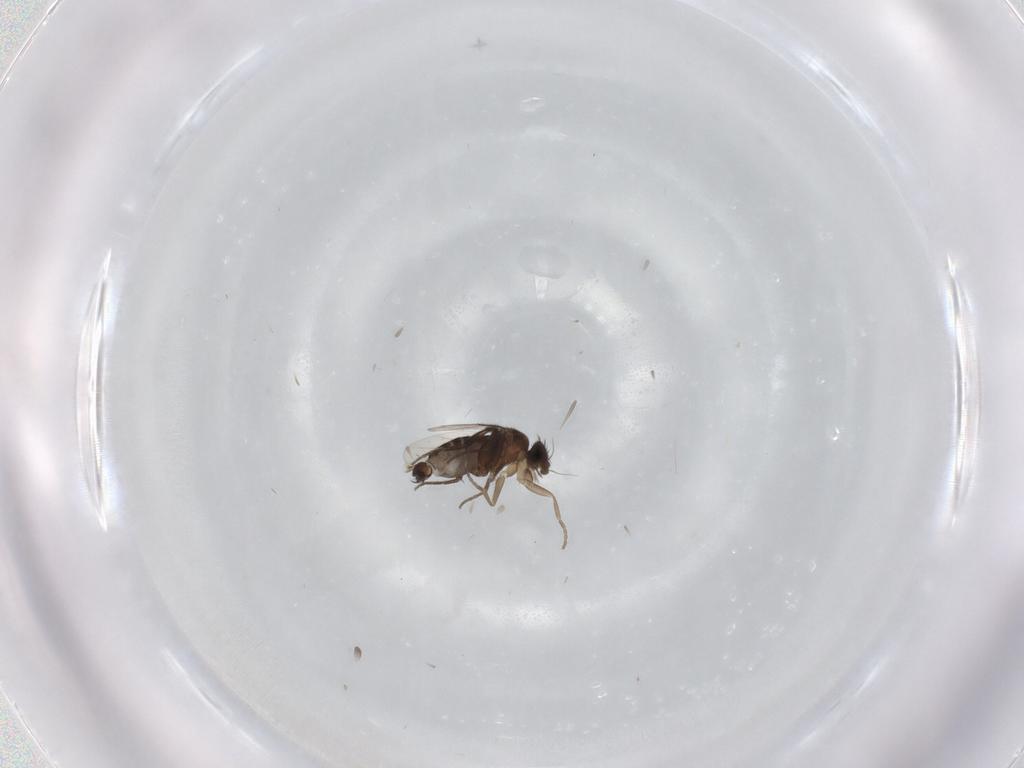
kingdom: Animalia
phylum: Arthropoda
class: Insecta
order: Diptera
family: Phoridae
